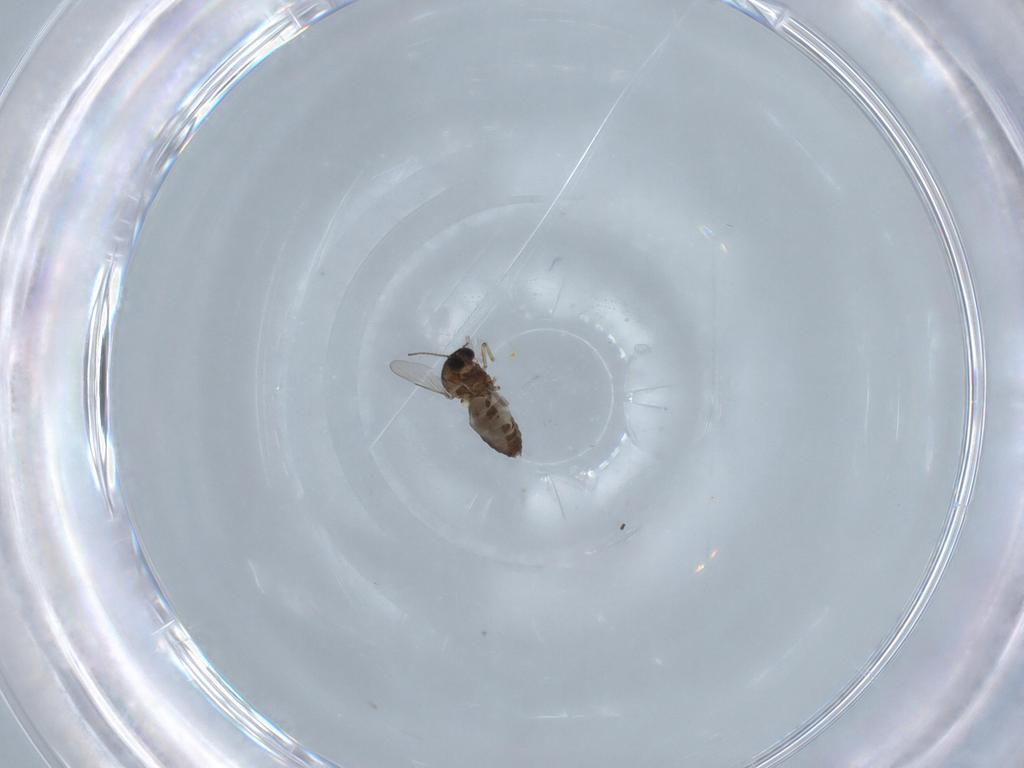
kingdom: Animalia
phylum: Arthropoda
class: Insecta
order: Diptera
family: Ceratopogonidae
